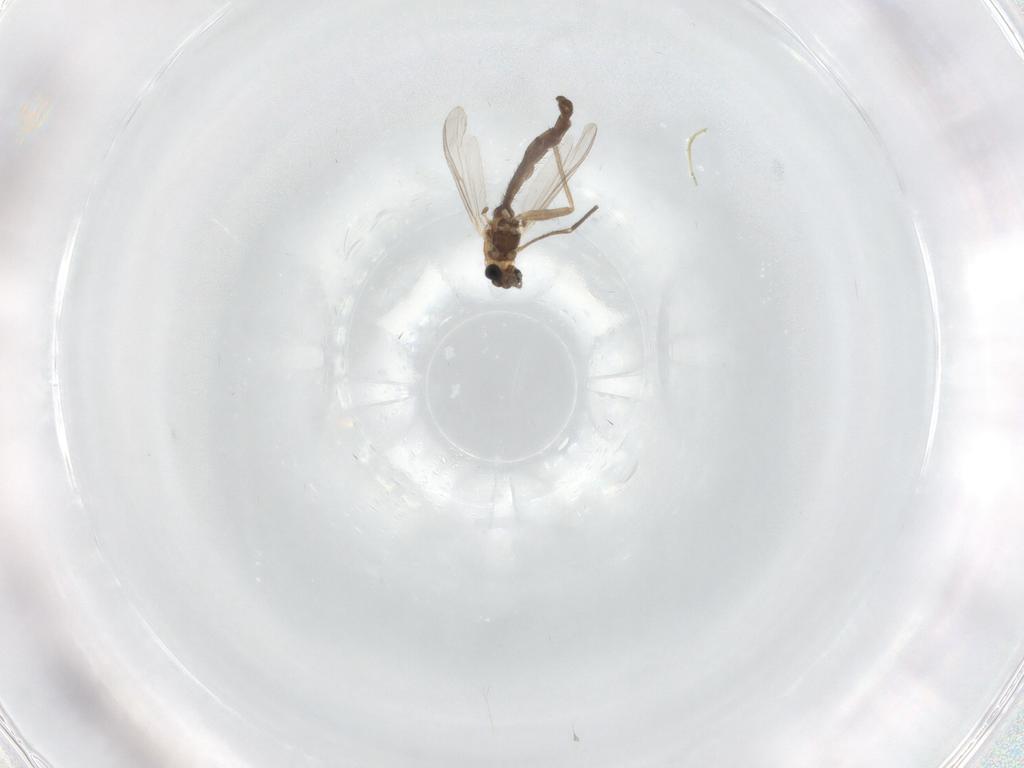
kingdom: Animalia
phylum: Arthropoda
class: Insecta
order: Diptera
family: Chironomidae
